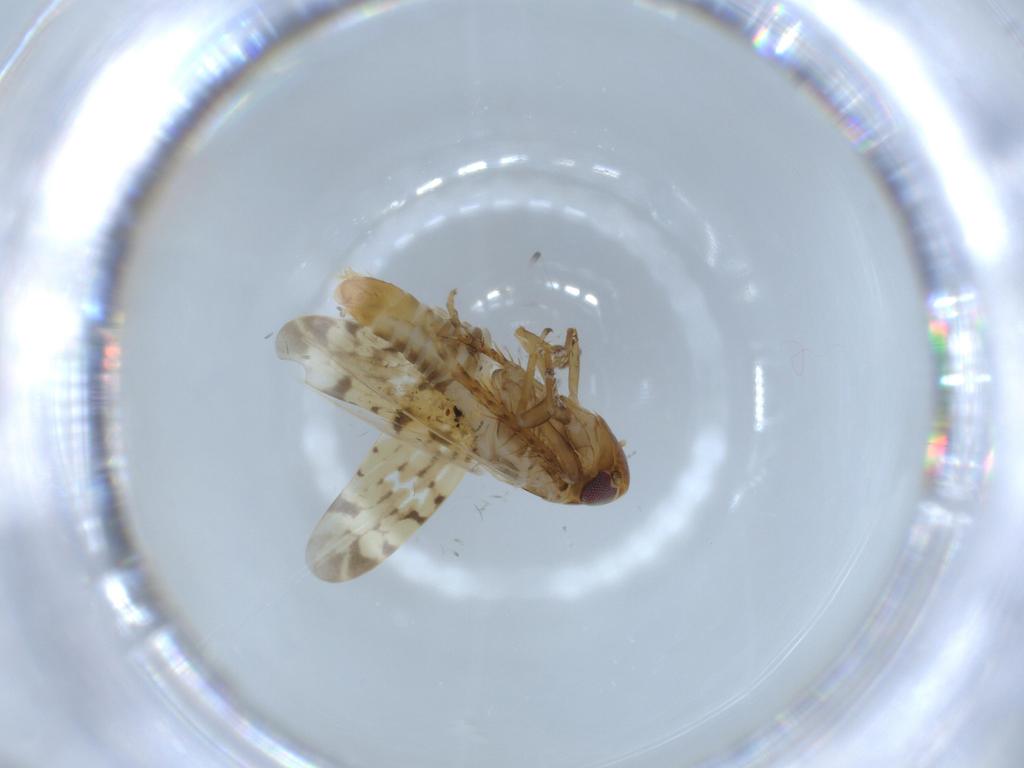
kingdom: Animalia
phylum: Arthropoda
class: Insecta
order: Hemiptera
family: Cicadellidae
